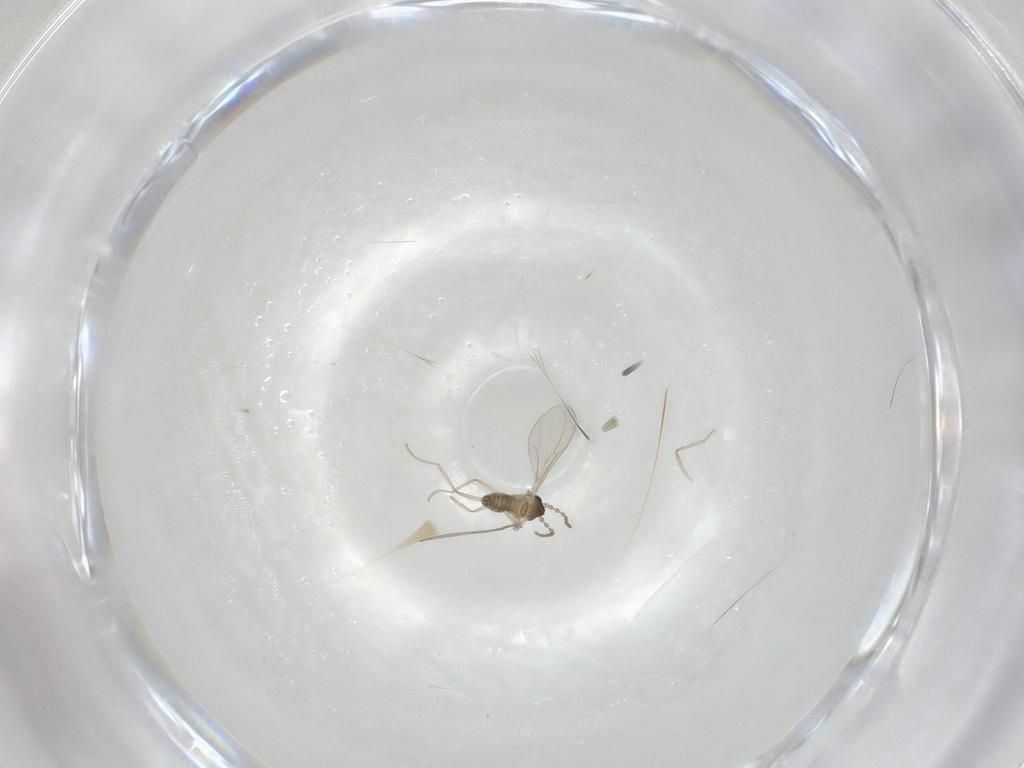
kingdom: Animalia
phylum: Arthropoda
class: Insecta
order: Diptera
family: Cecidomyiidae
